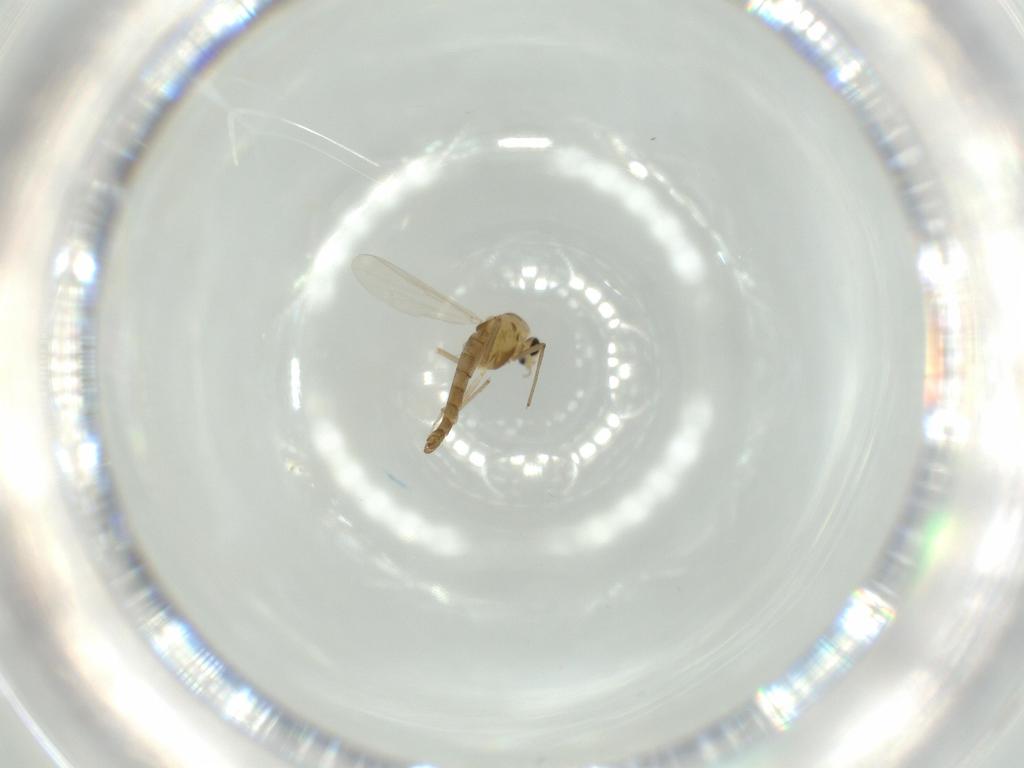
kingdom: Animalia
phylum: Arthropoda
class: Insecta
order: Diptera
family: Chironomidae
